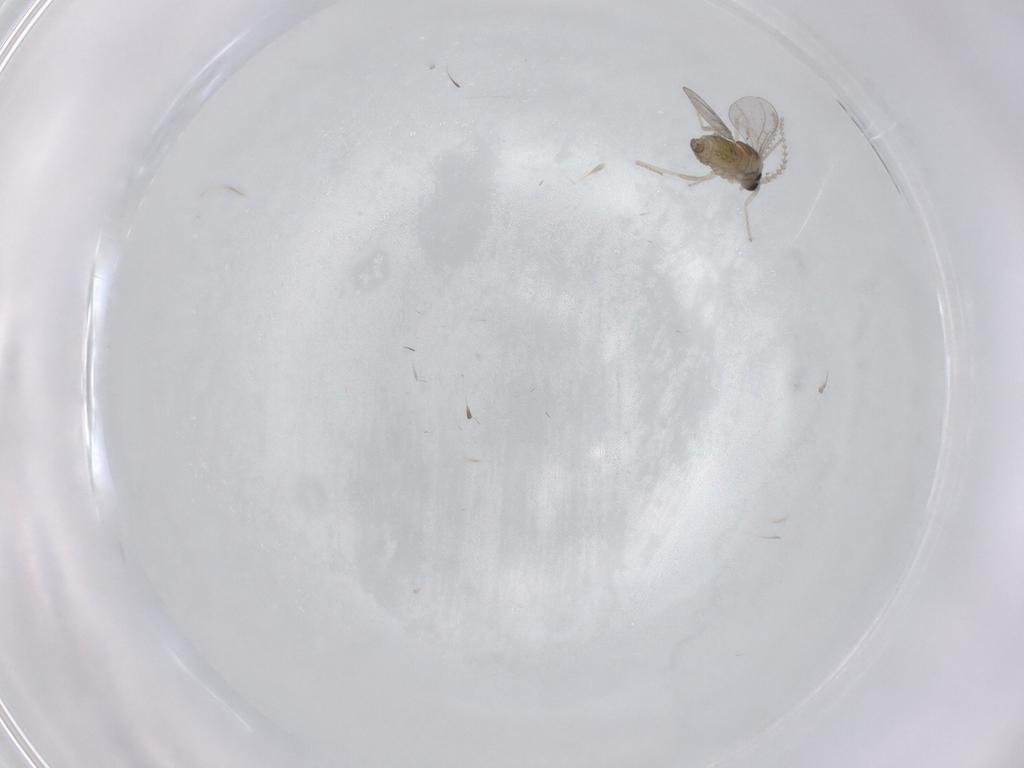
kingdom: Animalia
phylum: Arthropoda
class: Insecta
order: Diptera
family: Cecidomyiidae
